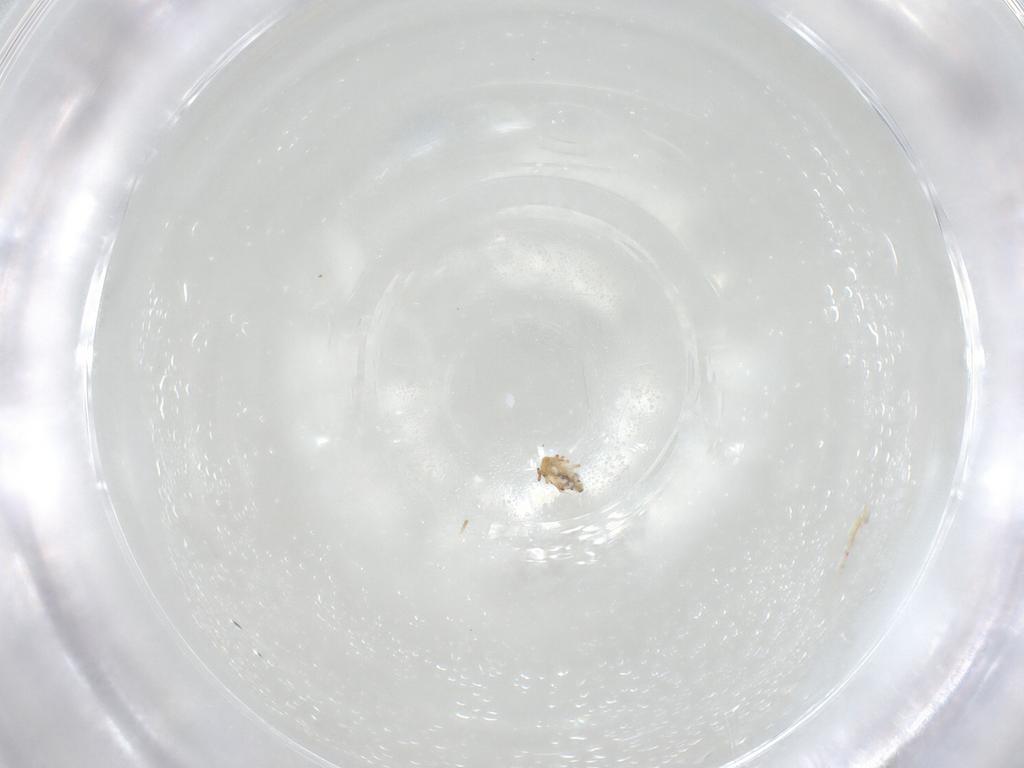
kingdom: Animalia
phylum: Arthropoda
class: Collembola
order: Symphypleona
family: Bourletiellidae
